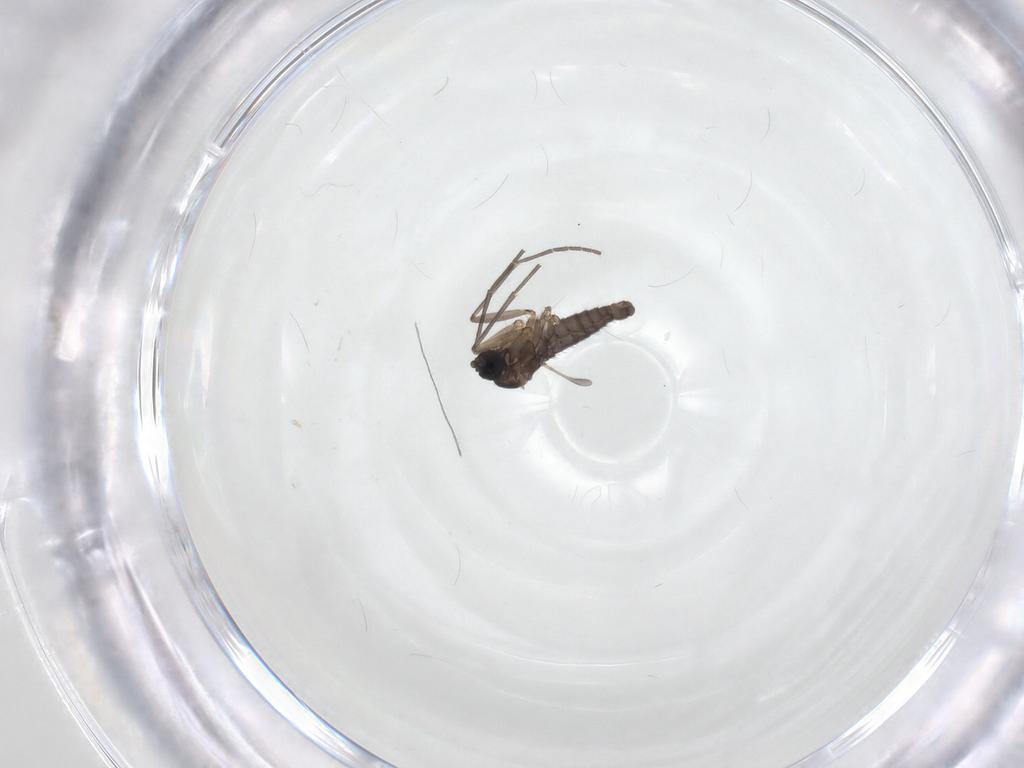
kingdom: Animalia
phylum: Arthropoda
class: Insecta
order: Diptera
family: Sciaridae
